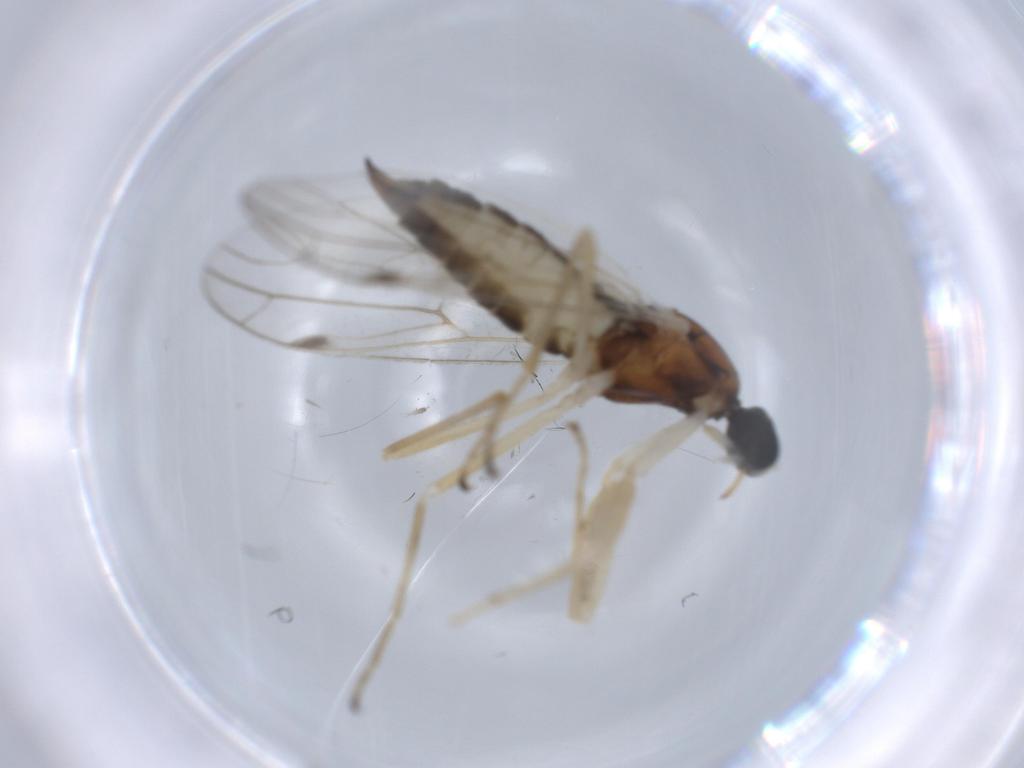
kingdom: Animalia
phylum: Arthropoda
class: Insecta
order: Diptera
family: Empididae
